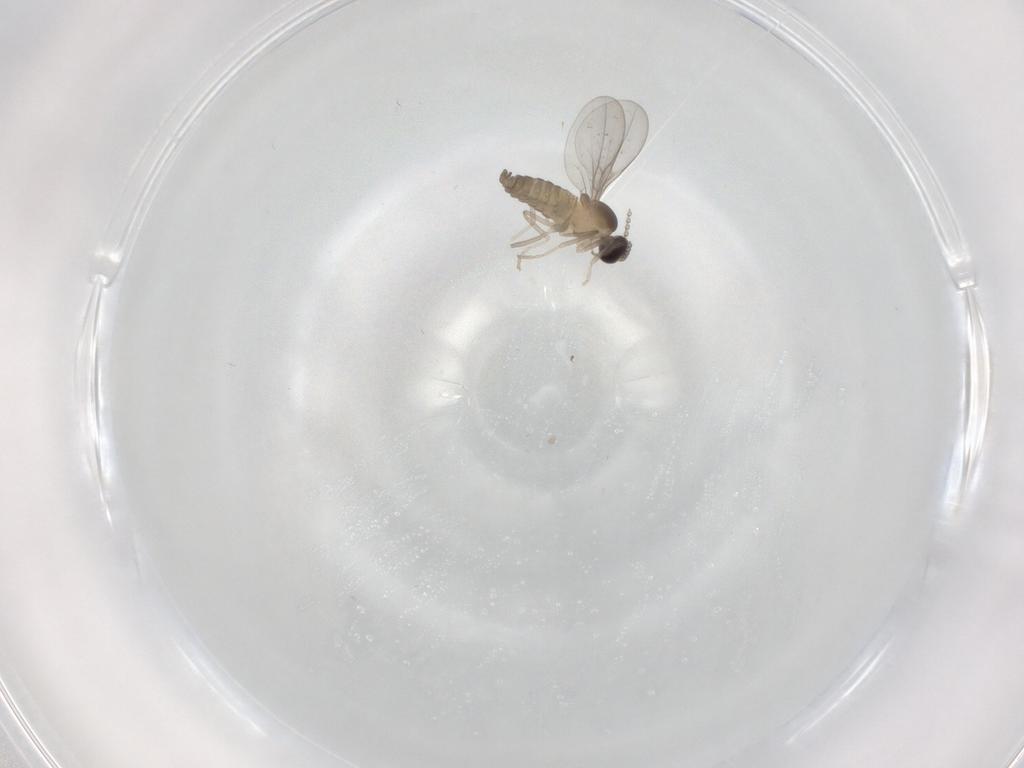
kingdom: Animalia
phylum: Arthropoda
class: Insecta
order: Diptera
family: Cecidomyiidae
